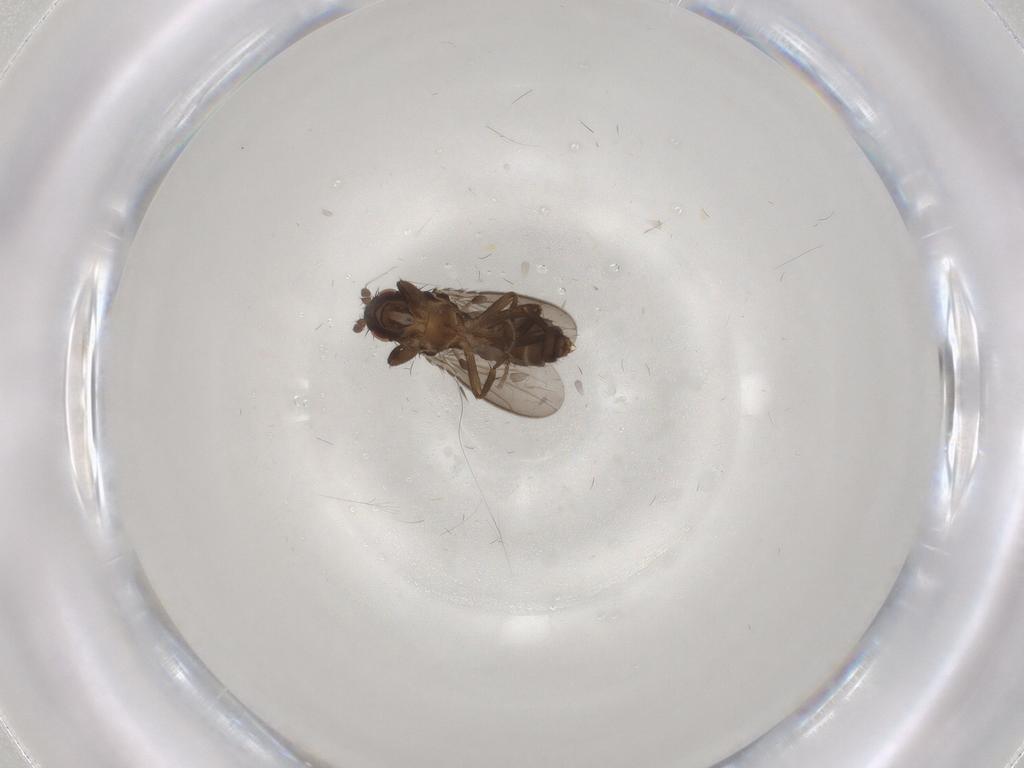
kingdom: Animalia
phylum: Arthropoda
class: Insecta
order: Diptera
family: Sphaeroceridae
